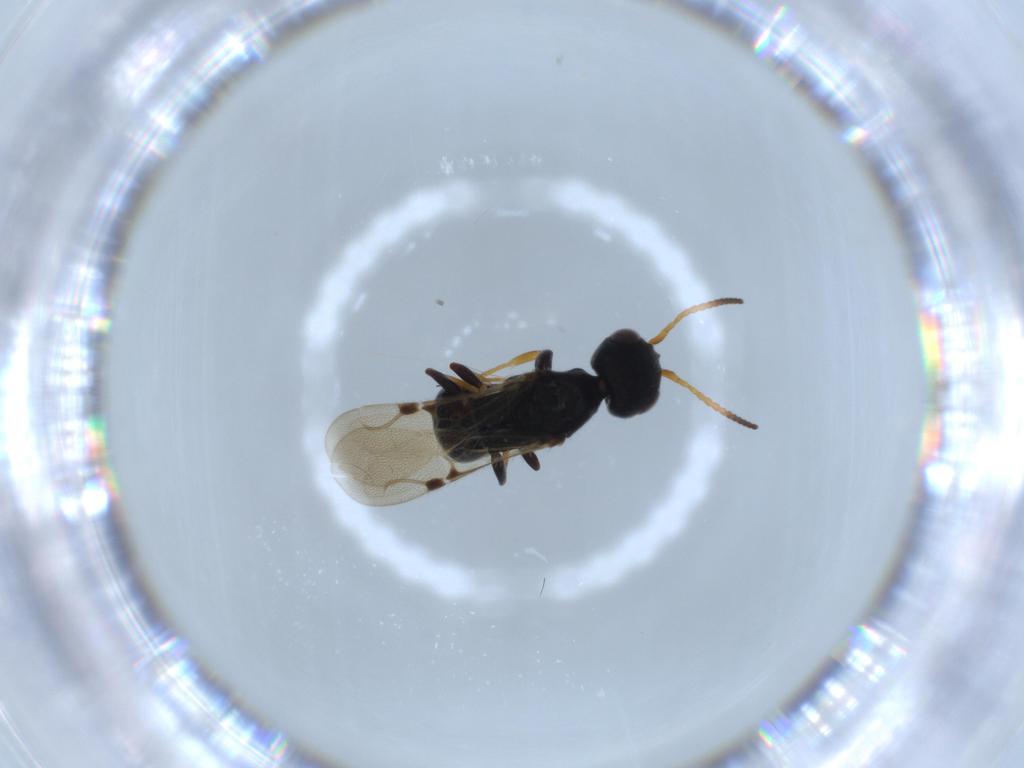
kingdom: Animalia
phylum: Arthropoda
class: Insecta
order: Hymenoptera
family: Bethylidae
